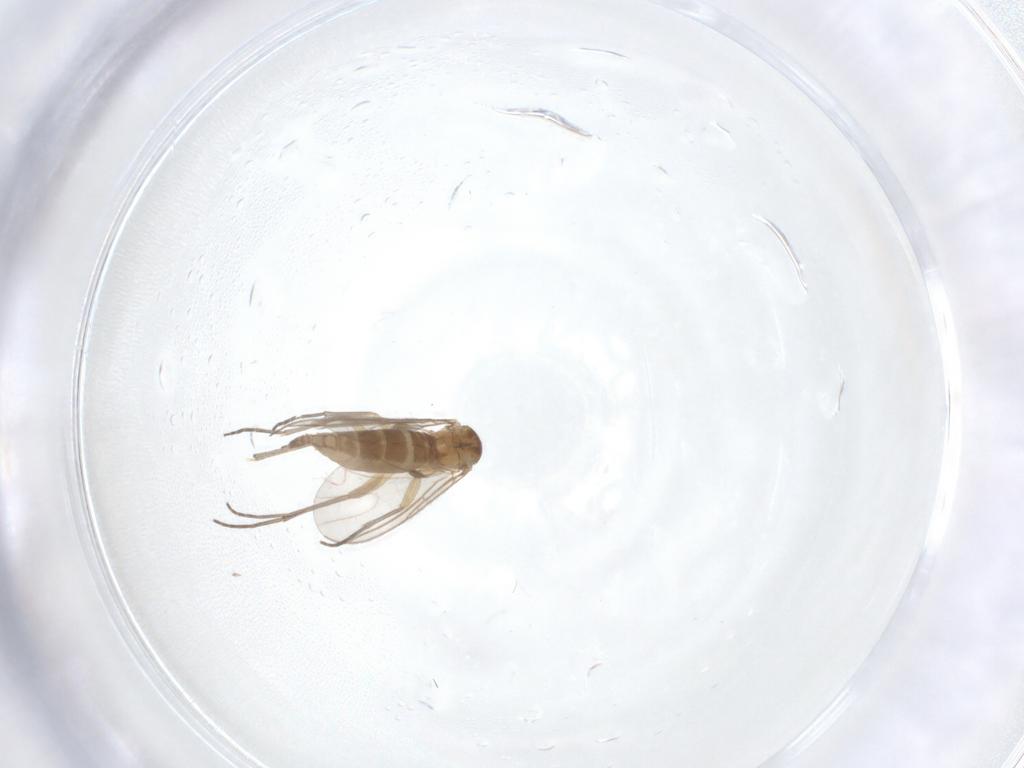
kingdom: Animalia
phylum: Arthropoda
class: Insecta
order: Diptera
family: Sciaridae
